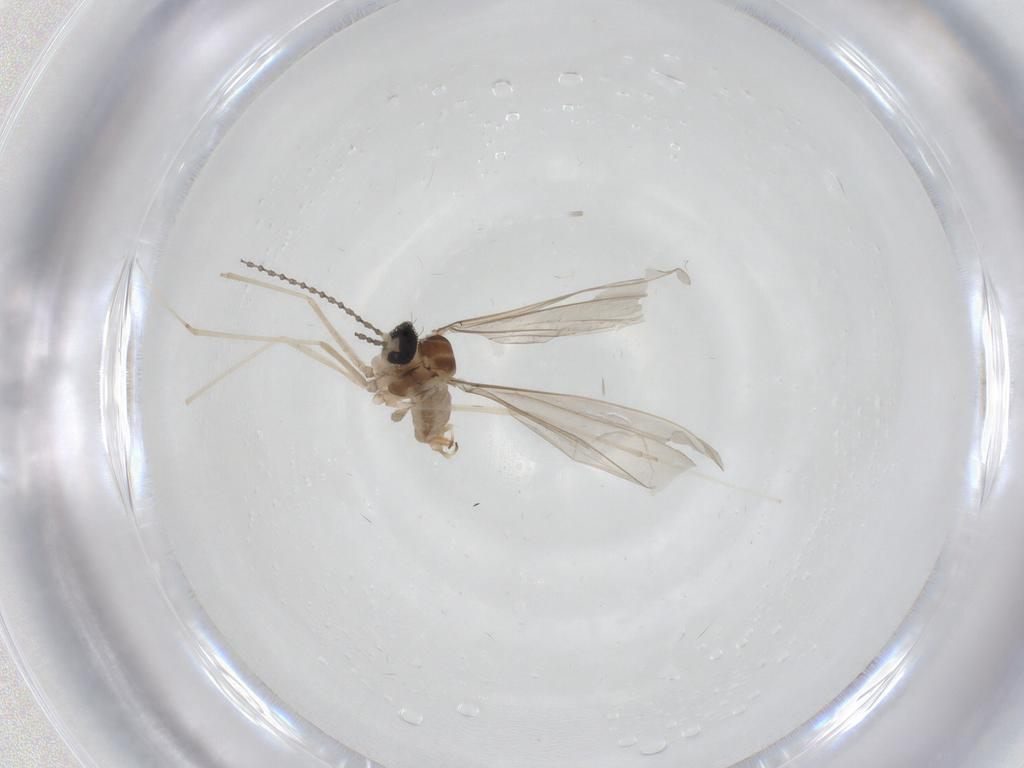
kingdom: Animalia
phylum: Arthropoda
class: Insecta
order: Diptera
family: Cecidomyiidae
